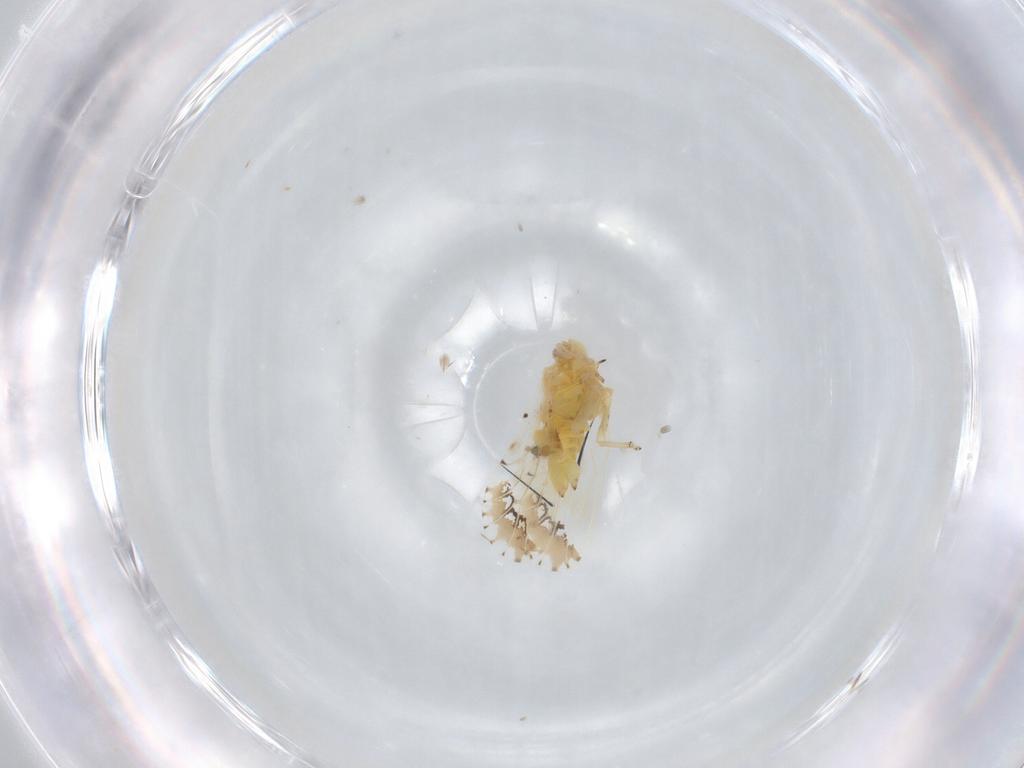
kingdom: Animalia
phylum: Arthropoda
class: Insecta
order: Hemiptera
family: Psyllidae
